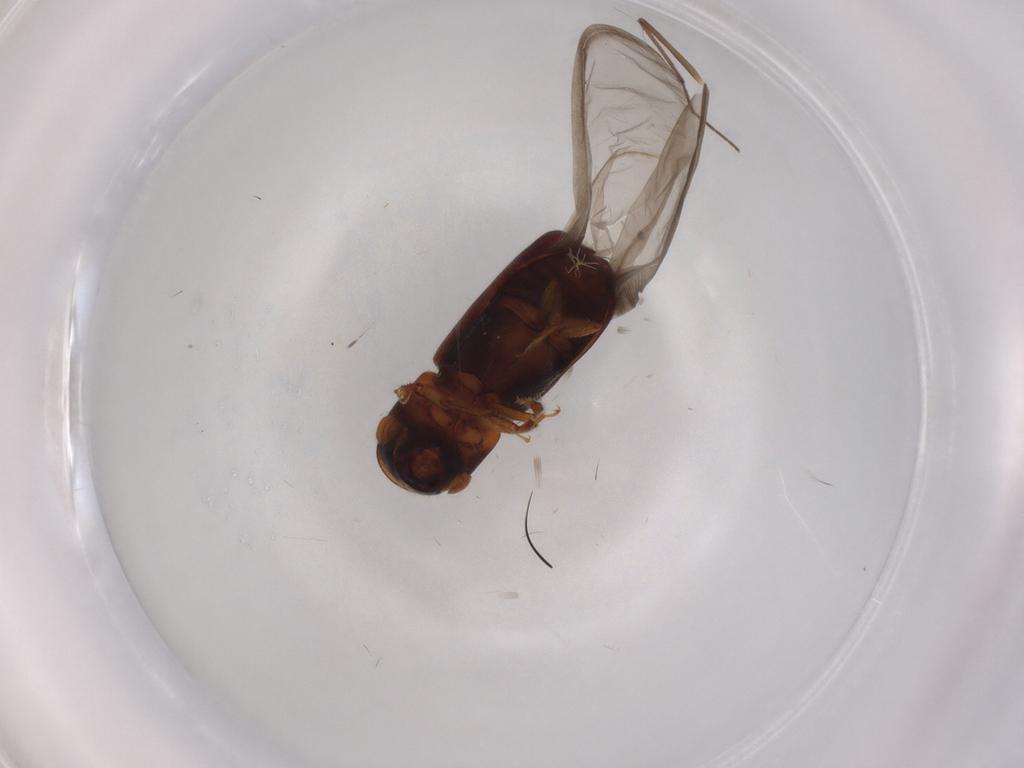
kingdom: Animalia
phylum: Arthropoda
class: Insecta
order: Coleoptera
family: Curculionidae
